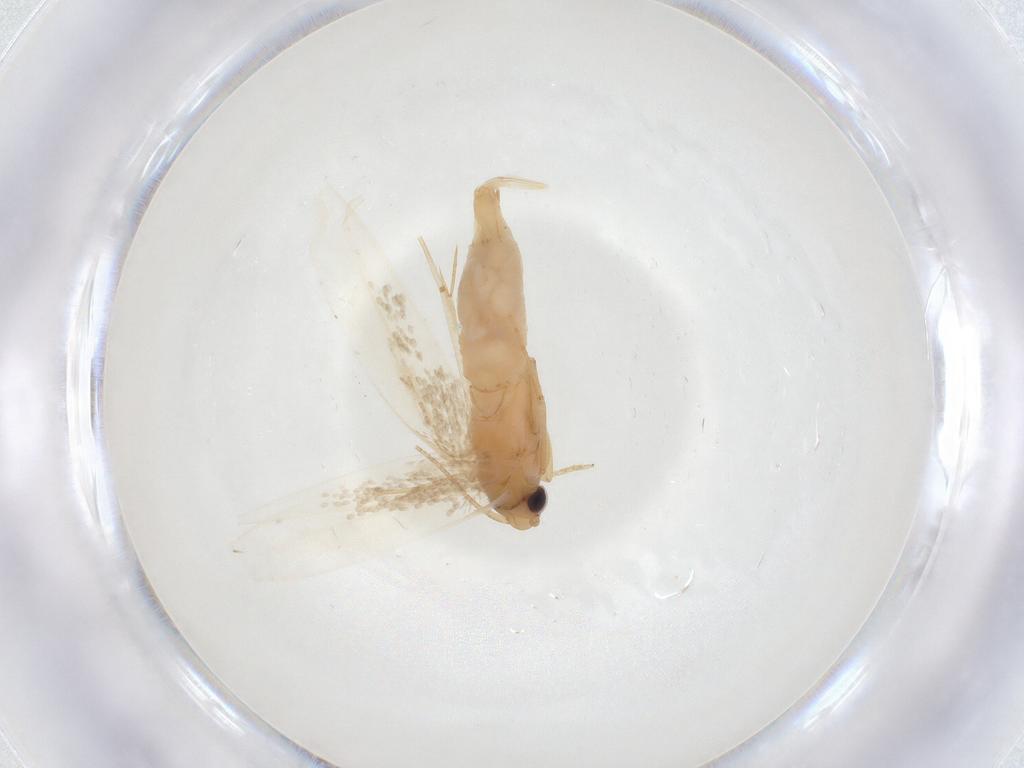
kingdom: Animalia
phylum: Arthropoda
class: Insecta
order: Lepidoptera
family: Tineidae
